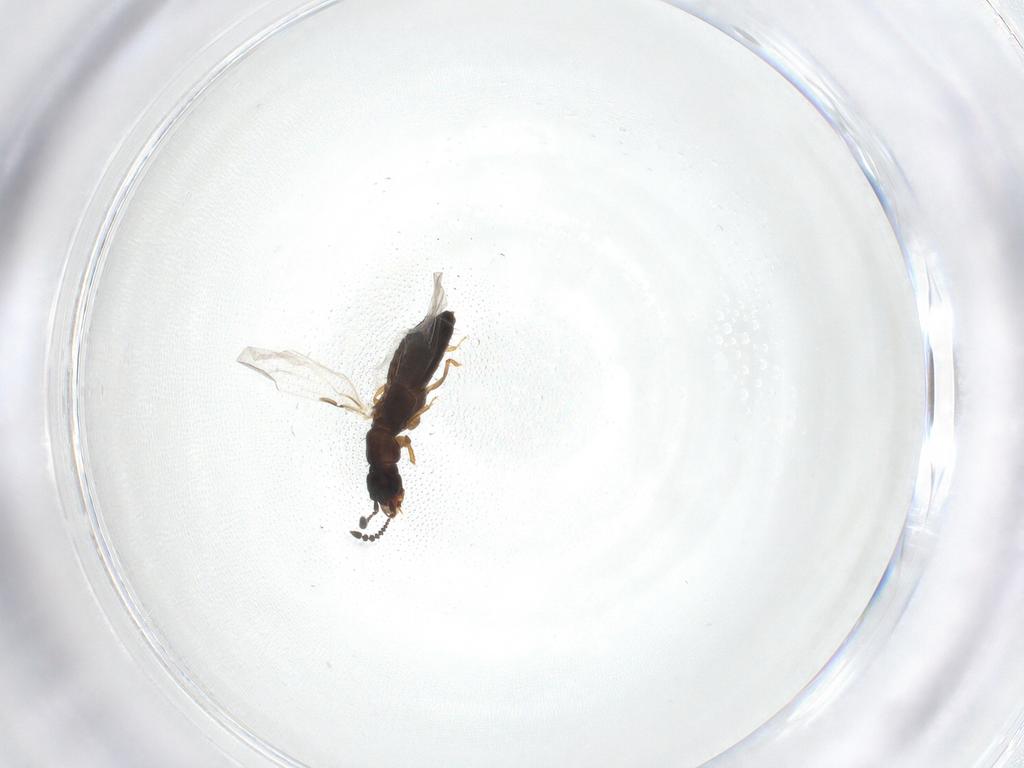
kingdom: Animalia
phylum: Arthropoda
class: Insecta
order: Coleoptera
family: Staphylinidae
